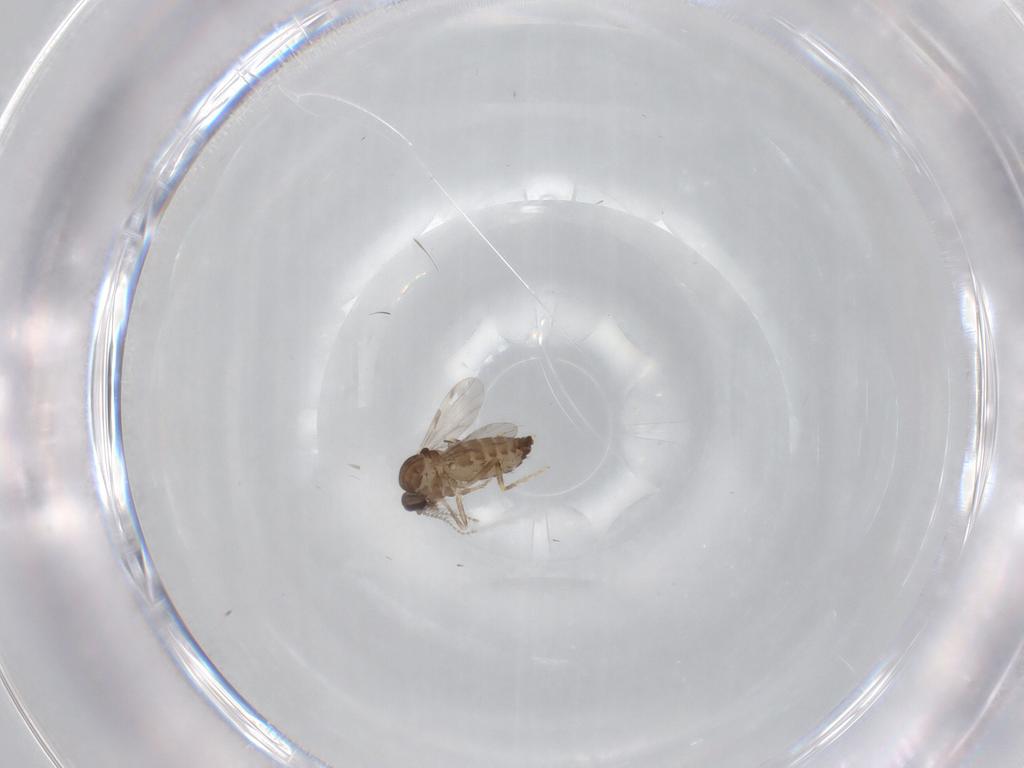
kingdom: Animalia
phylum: Arthropoda
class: Insecta
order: Diptera
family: Ceratopogonidae
